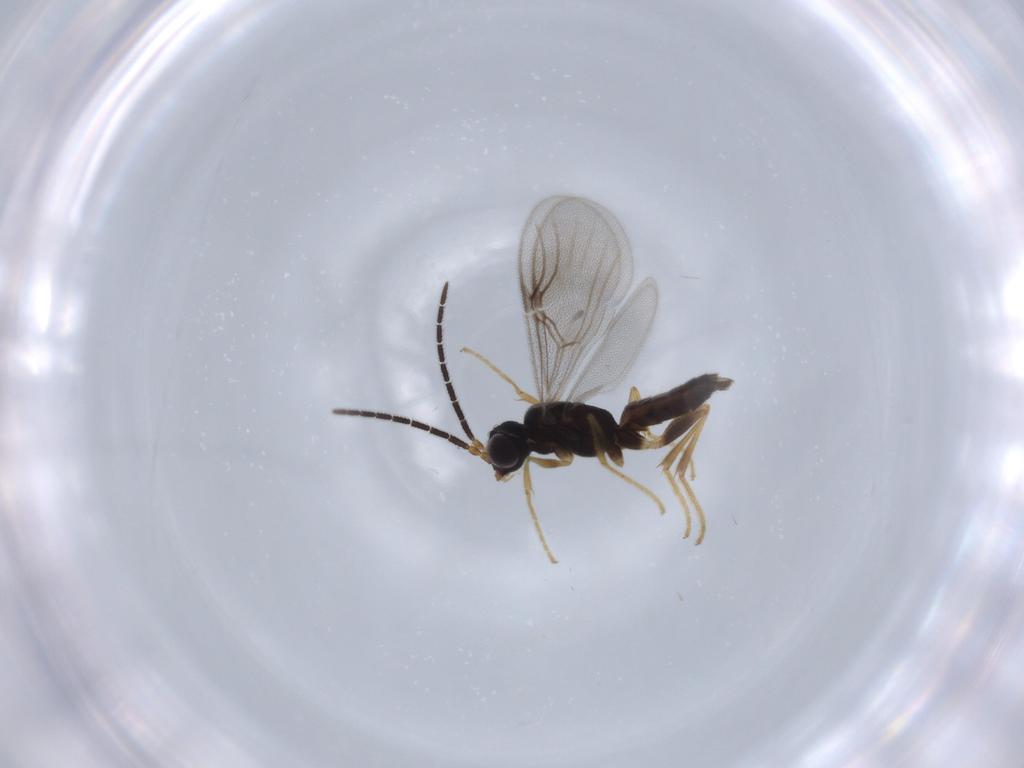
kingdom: Animalia
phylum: Arthropoda
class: Insecta
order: Hymenoptera
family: Dryinidae
